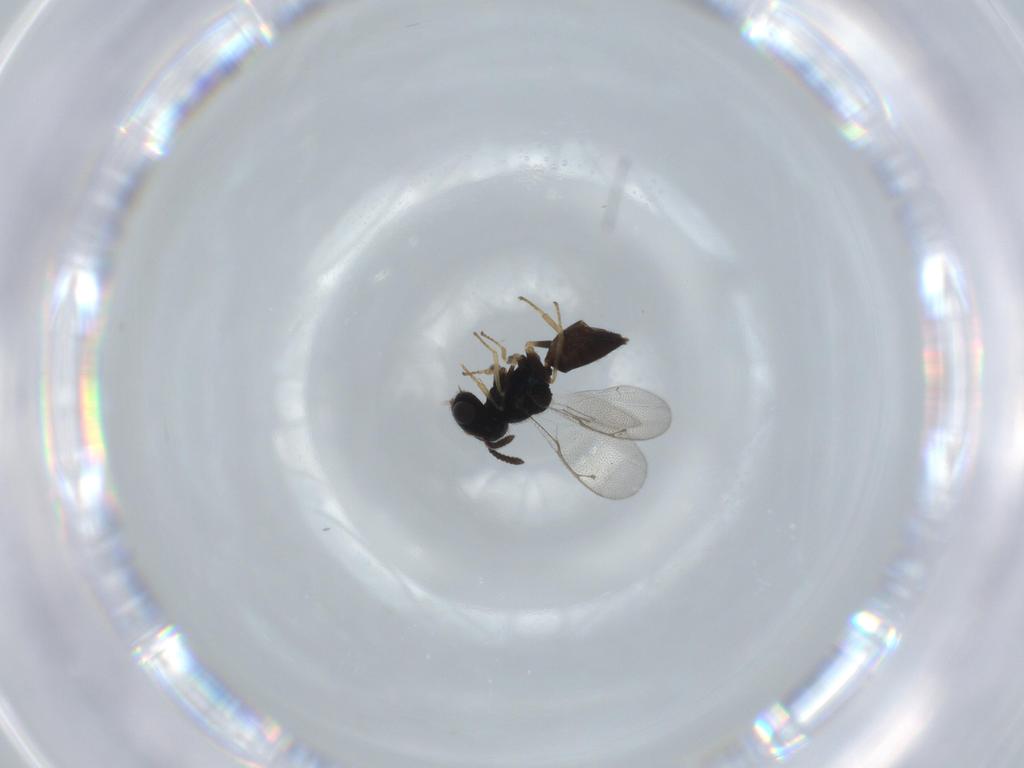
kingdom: Animalia
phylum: Arthropoda
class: Insecta
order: Hymenoptera
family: Pteromalidae
